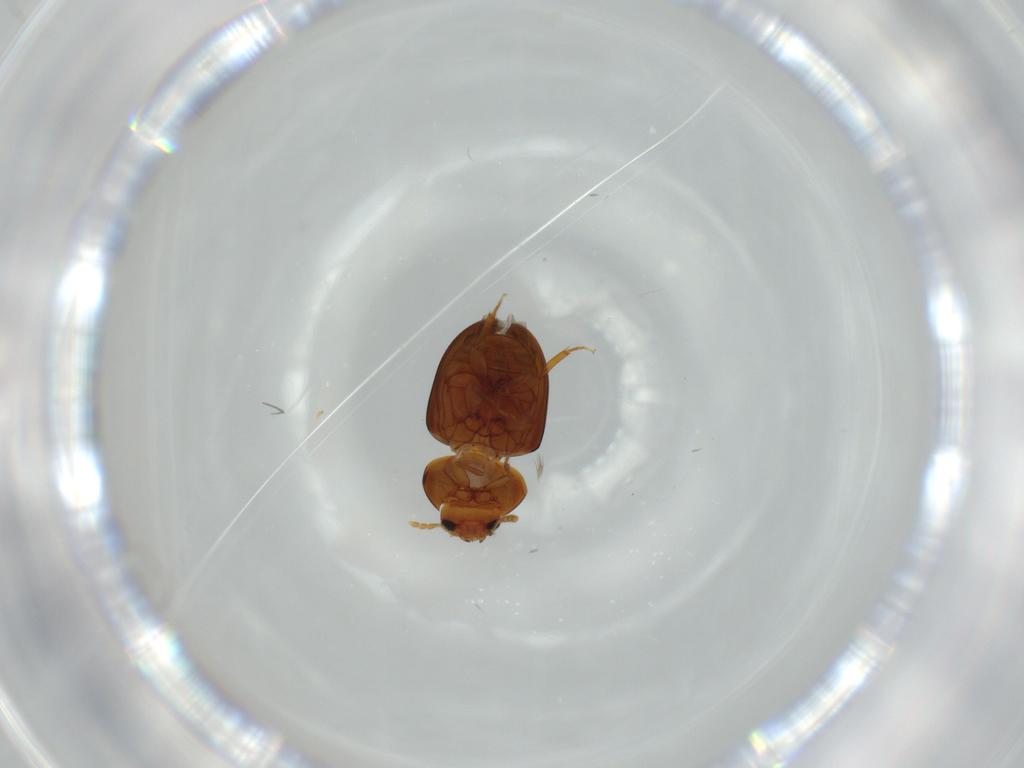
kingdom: Animalia
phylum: Arthropoda
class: Insecta
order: Coleoptera
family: Phalacridae
